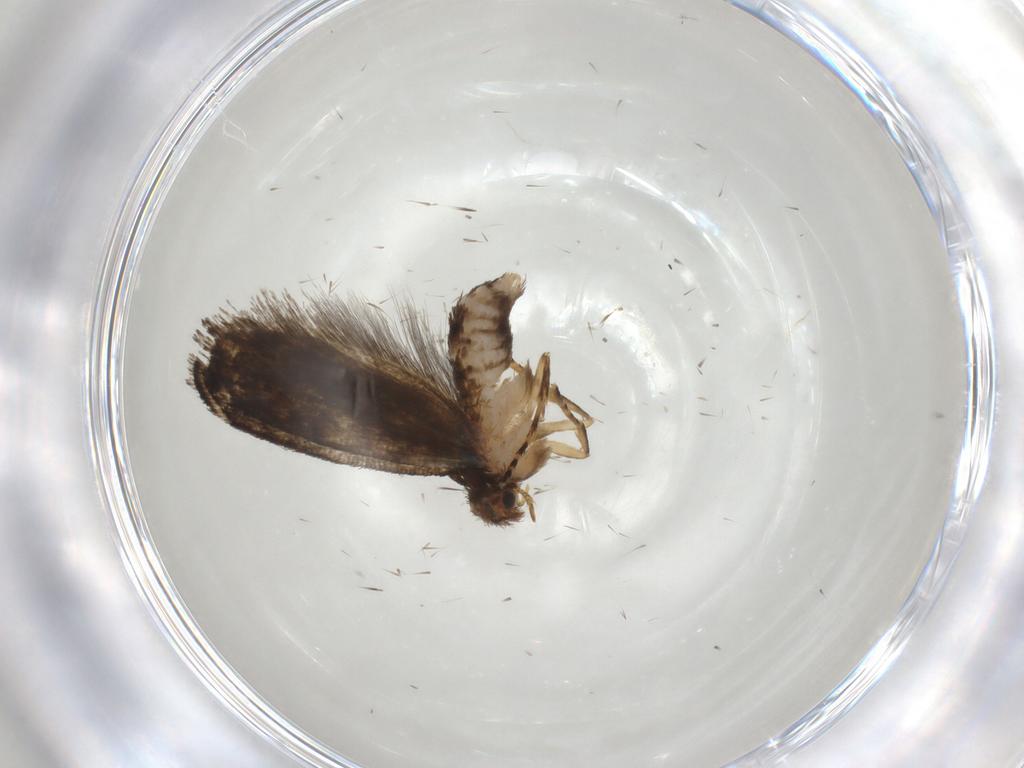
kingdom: Animalia
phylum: Arthropoda
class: Insecta
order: Lepidoptera
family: Tineidae
